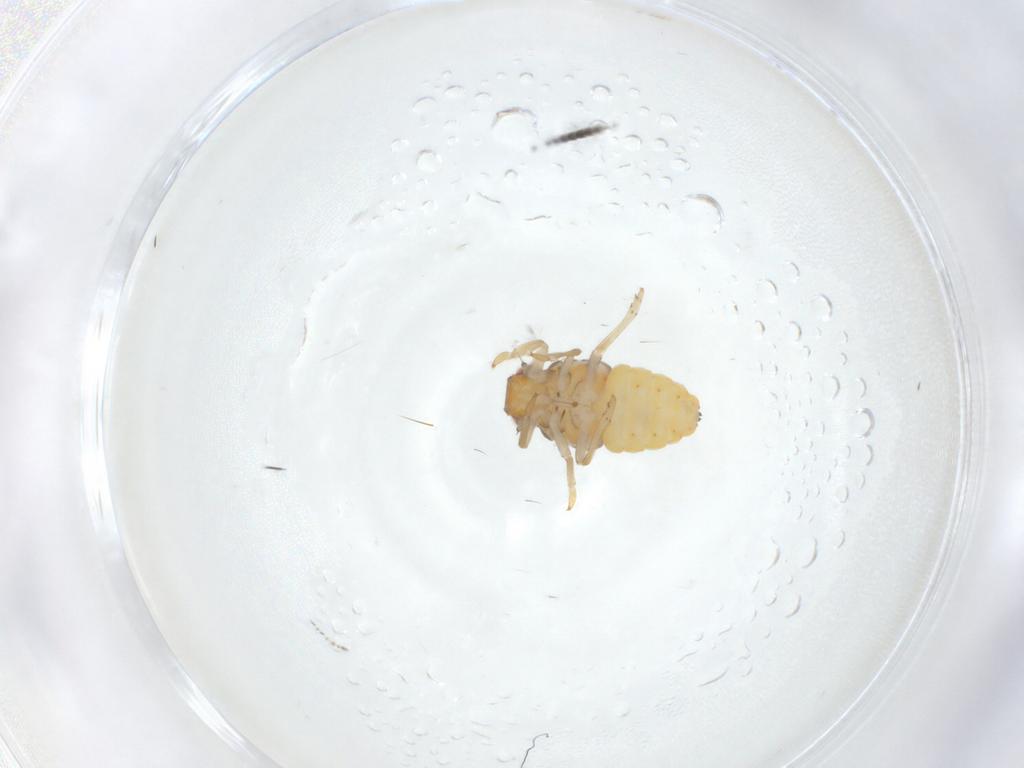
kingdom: Animalia
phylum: Arthropoda
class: Insecta
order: Hemiptera
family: Issidae
